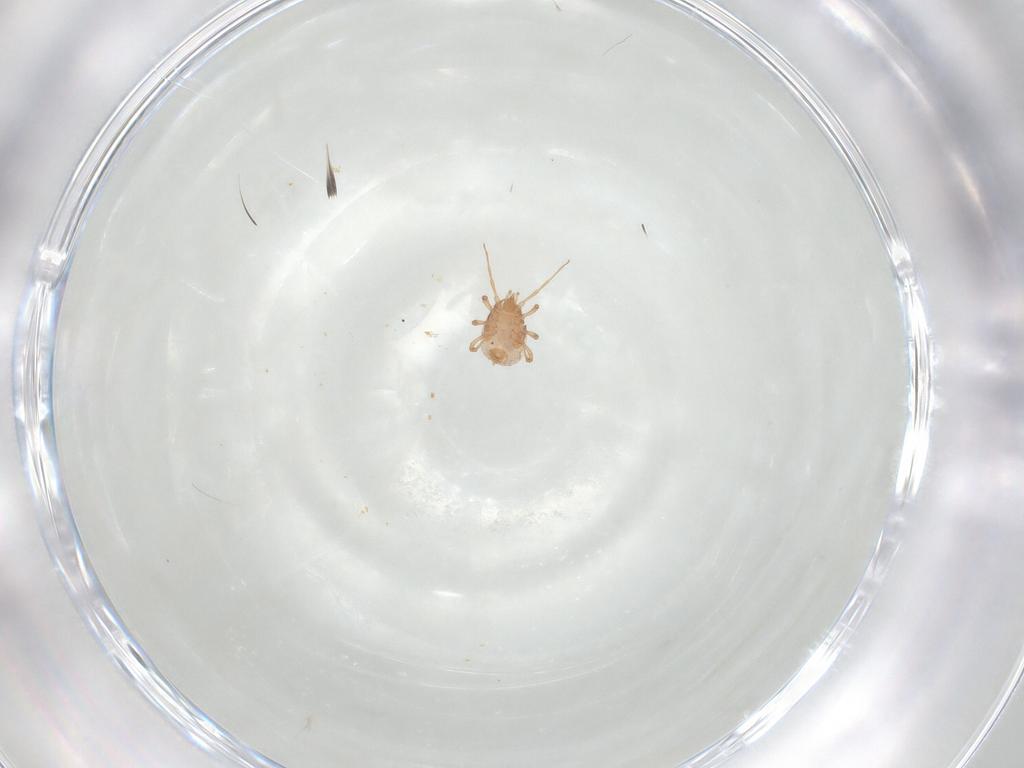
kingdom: Animalia
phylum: Arthropoda
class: Arachnida
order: Mesostigmata
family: Blattisociidae
